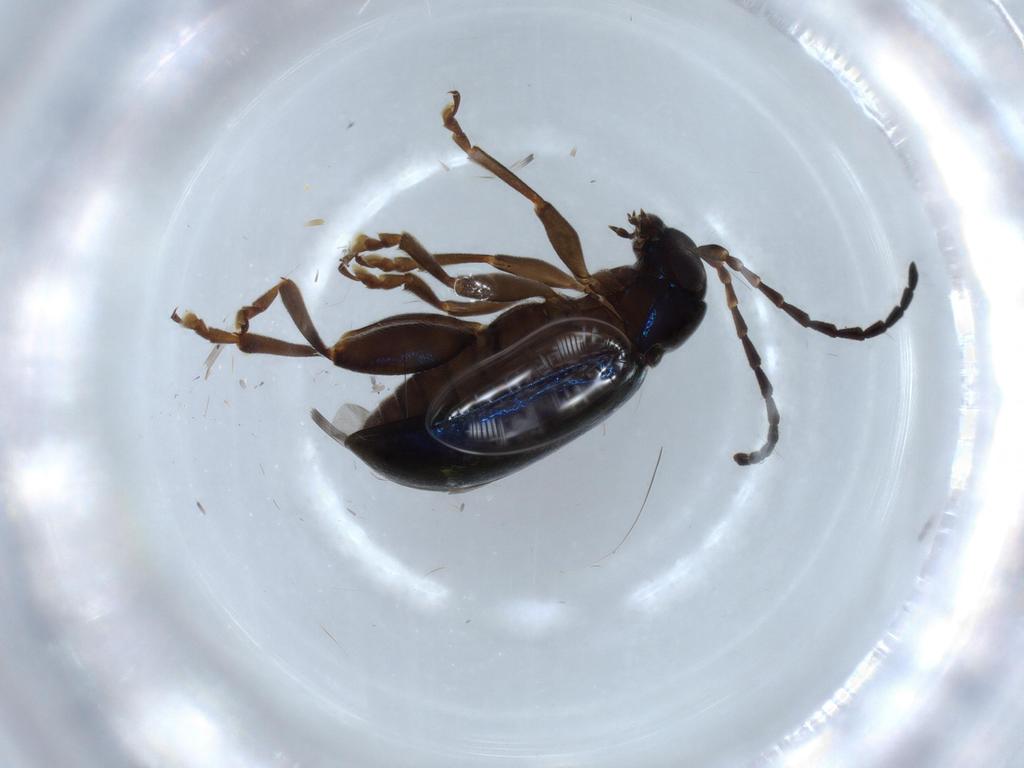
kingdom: Animalia
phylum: Arthropoda
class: Insecta
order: Coleoptera
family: Chrysomelidae
